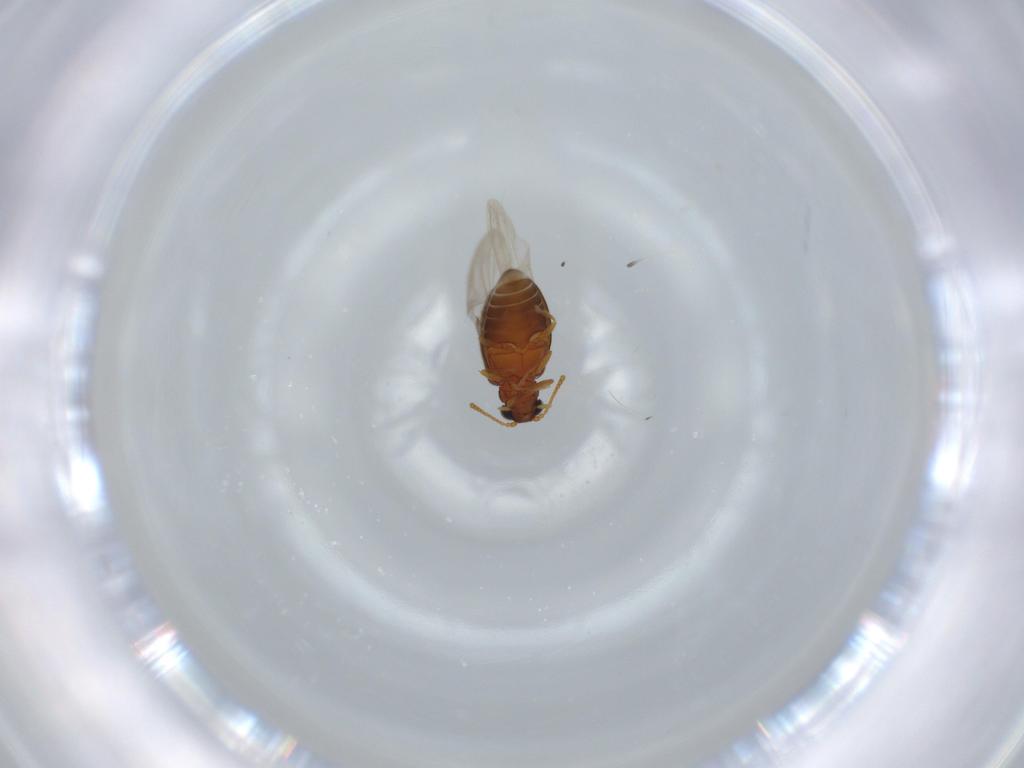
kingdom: Animalia
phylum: Arthropoda
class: Insecta
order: Coleoptera
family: Aderidae
